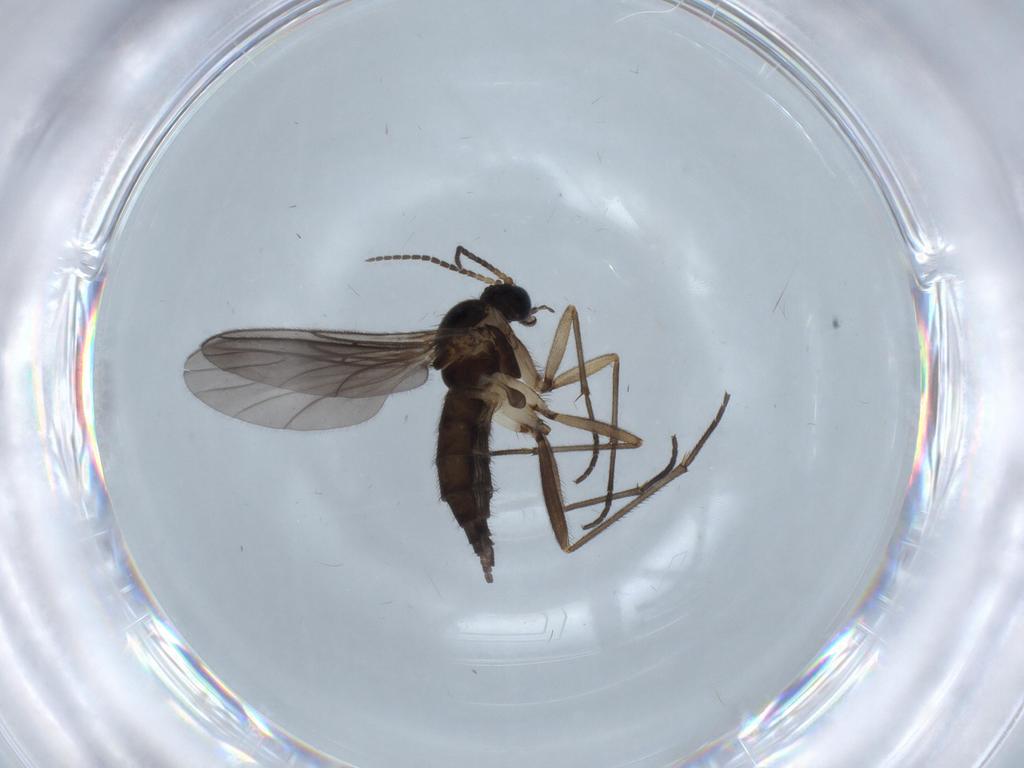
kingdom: Animalia
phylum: Arthropoda
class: Insecta
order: Diptera
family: Sciaridae
